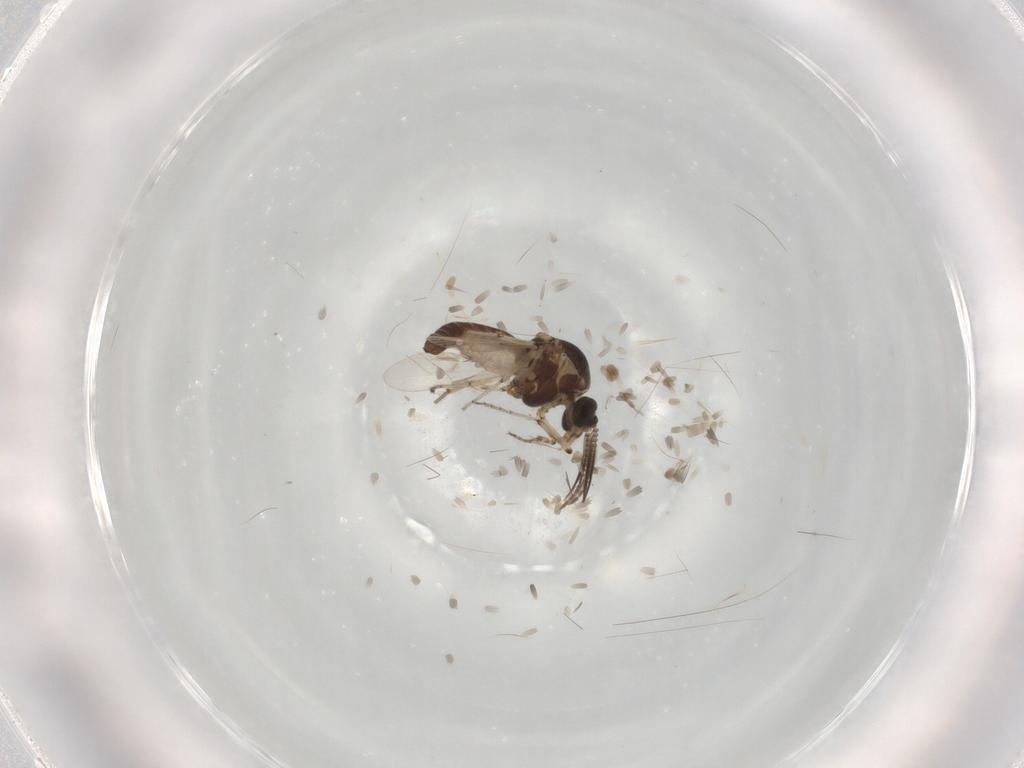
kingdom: Animalia
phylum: Arthropoda
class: Insecta
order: Diptera
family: Ceratopogonidae
